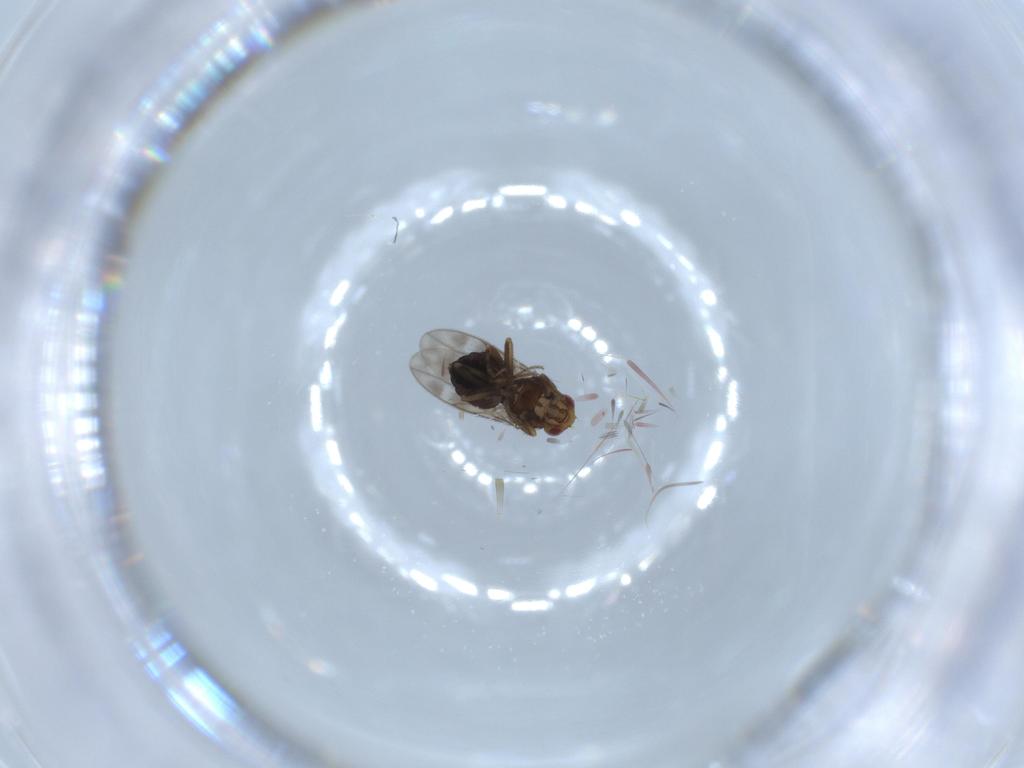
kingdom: Animalia
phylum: Arthropoda
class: Insecta
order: Diptera
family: Sphaeroceridae
